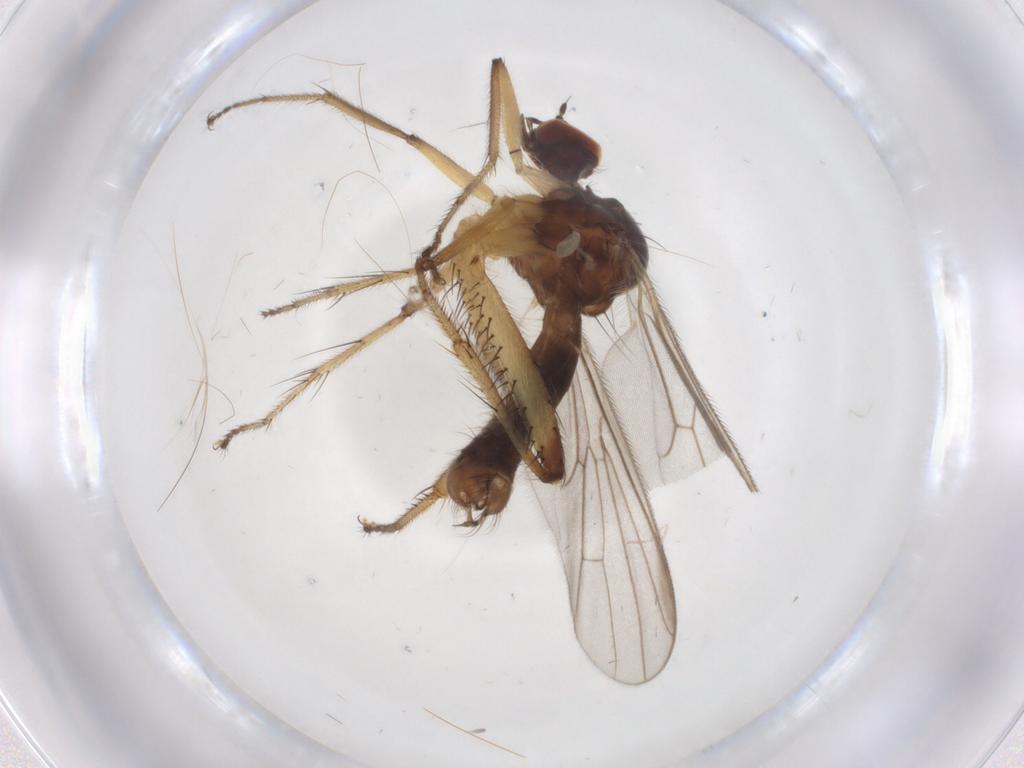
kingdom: Animalia
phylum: Arthropoda
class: Insecta
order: Diptera
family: Hybotidae
